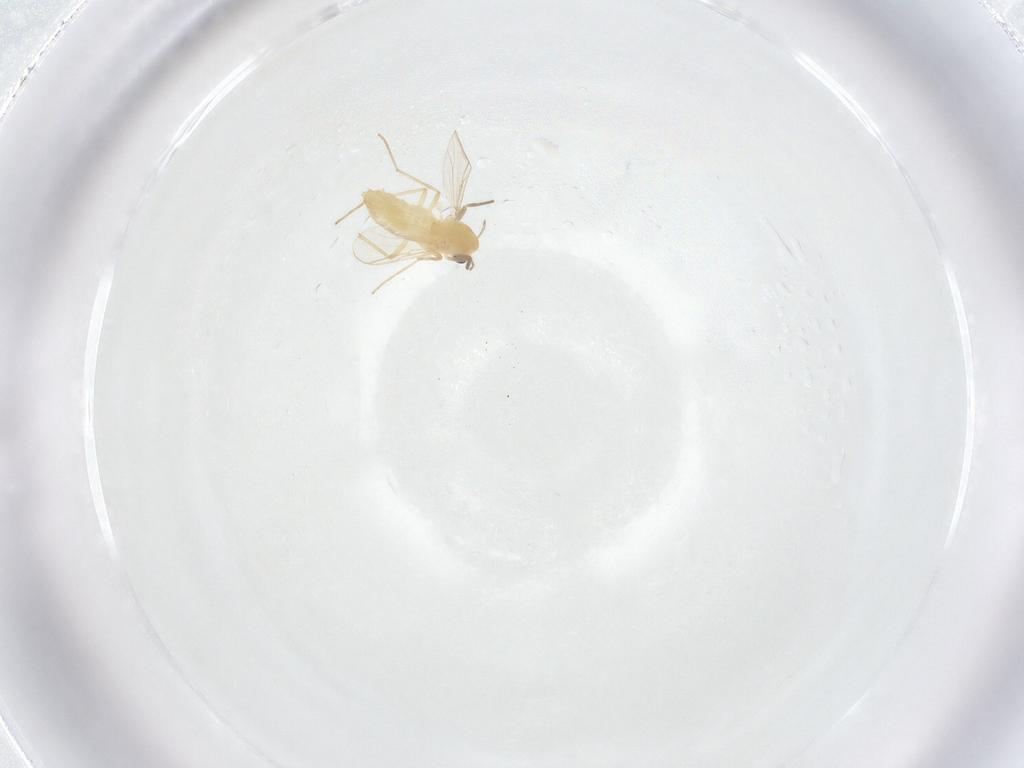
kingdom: Animalia
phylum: Arthropoda
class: Insecta
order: Diptera
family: Chironomidae
